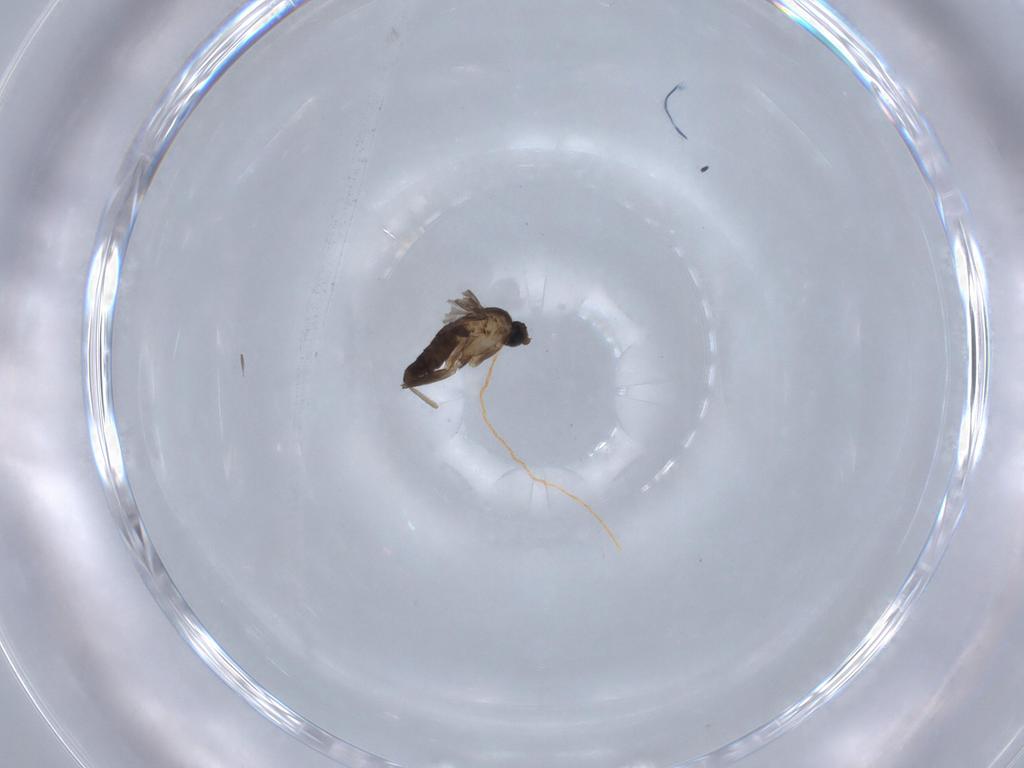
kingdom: Animalia
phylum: Arthropoda
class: Insecta
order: Diptera
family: Phoridae
